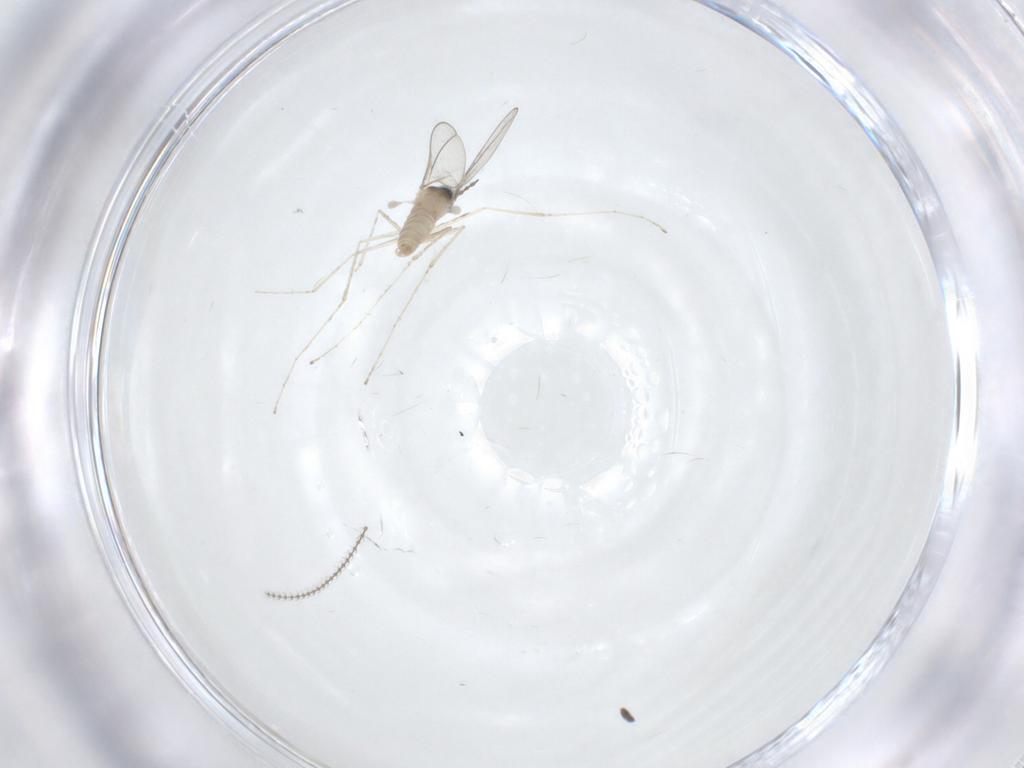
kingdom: Animalia
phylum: Arthropoda
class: Insecta
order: Diptera
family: Cecidomyiidae
